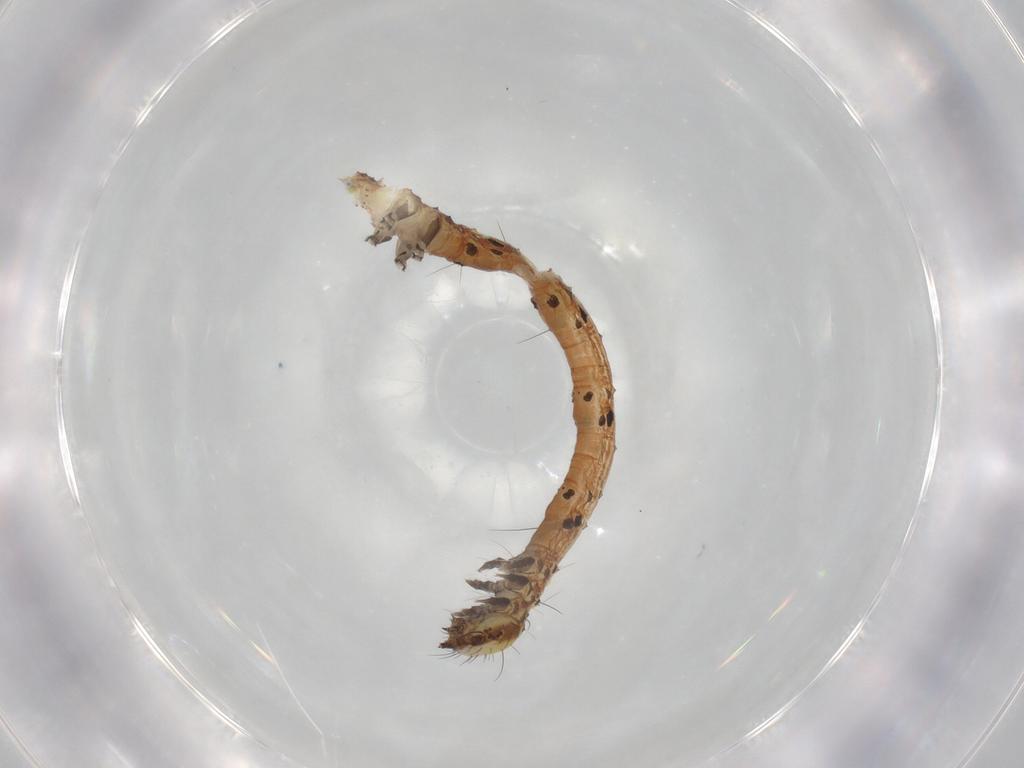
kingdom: Animalia
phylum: Arthropoda
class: Insecta
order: Lepidoptera
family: Erebidae
